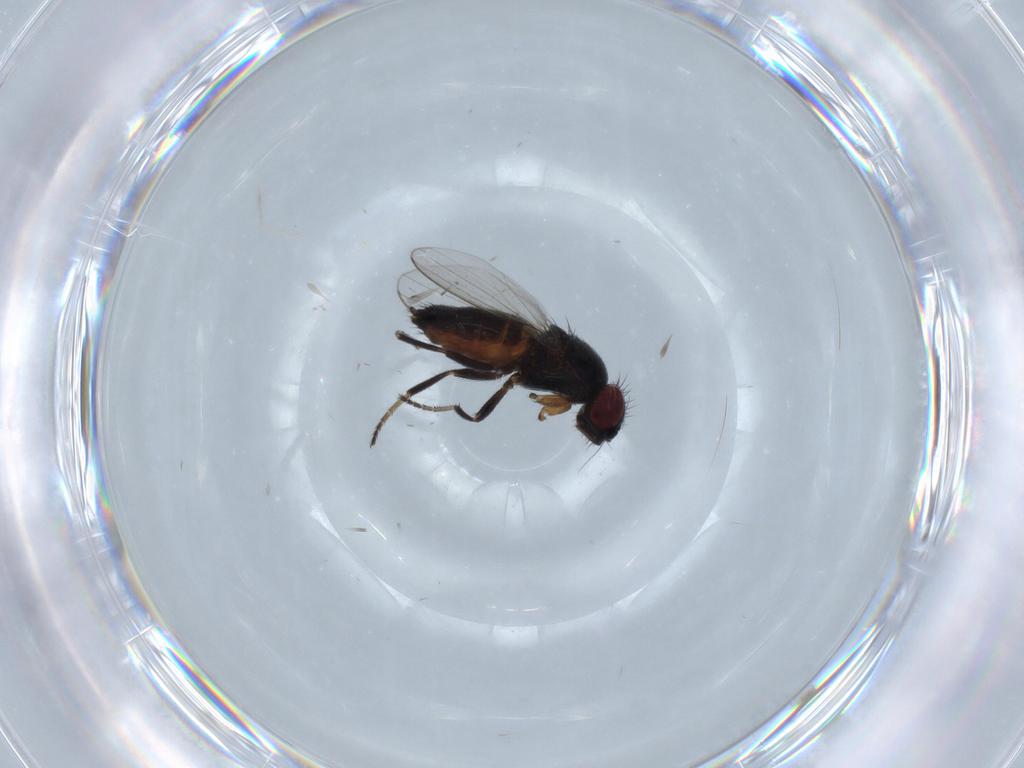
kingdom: Animalia
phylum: Arthropoda
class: Insecta
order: Diptera
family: Milichiidae
